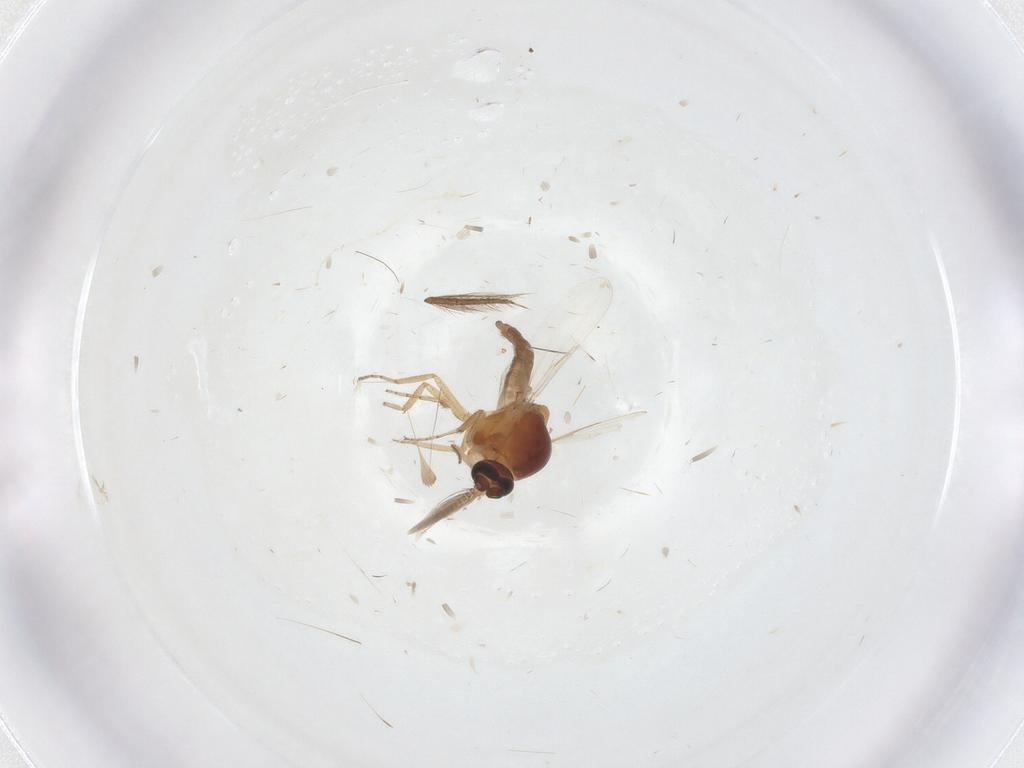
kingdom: Animalia
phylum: Arthropoda
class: Insecta
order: Diptera
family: Ceratopogonidae
